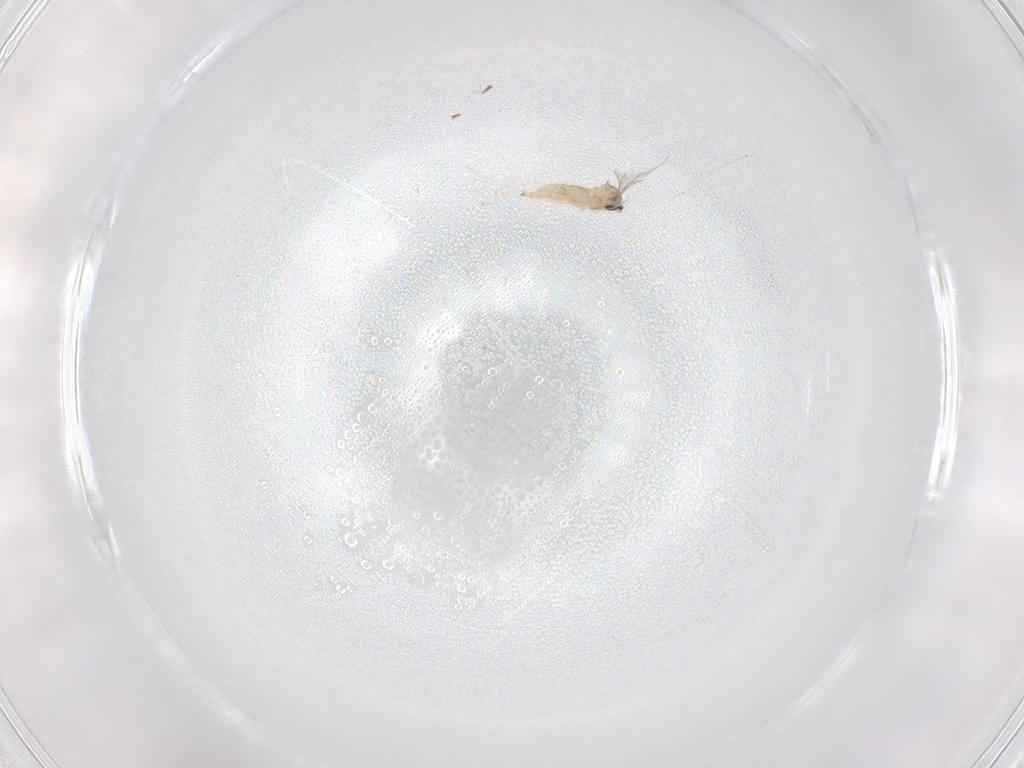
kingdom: Animalia
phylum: Arthropoda
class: Insecta
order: Diptera
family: Cecidomyiidae
